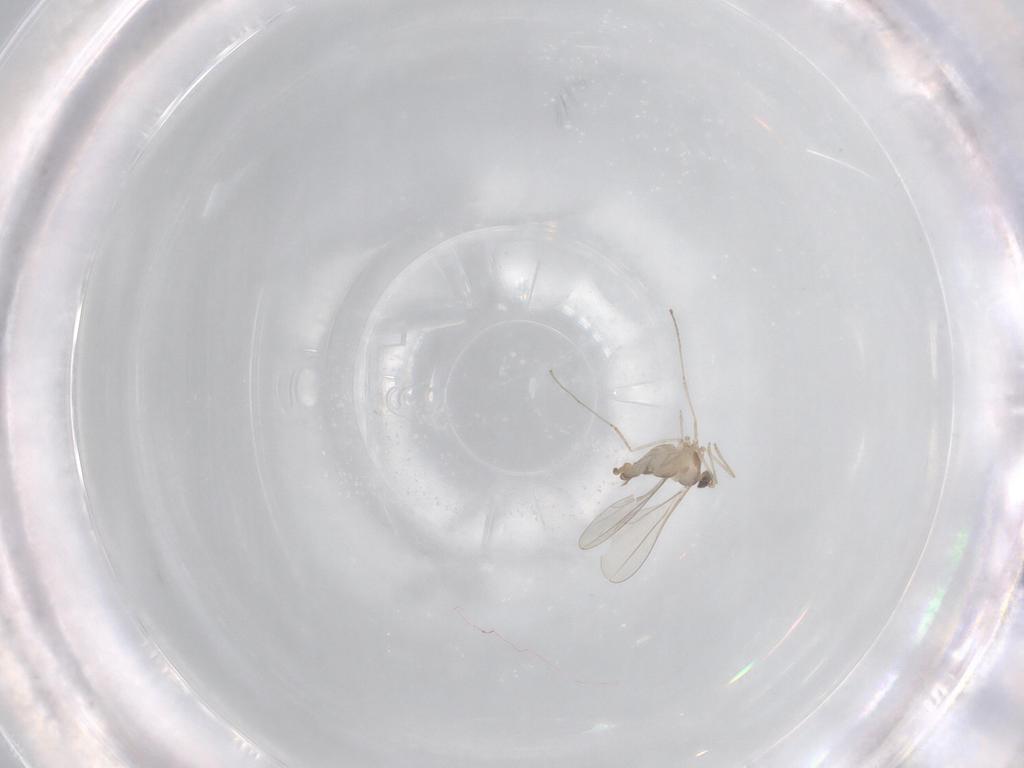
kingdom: Animalia
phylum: Arthropoda
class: Insecta
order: Diptera
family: Cecidomyiidae
